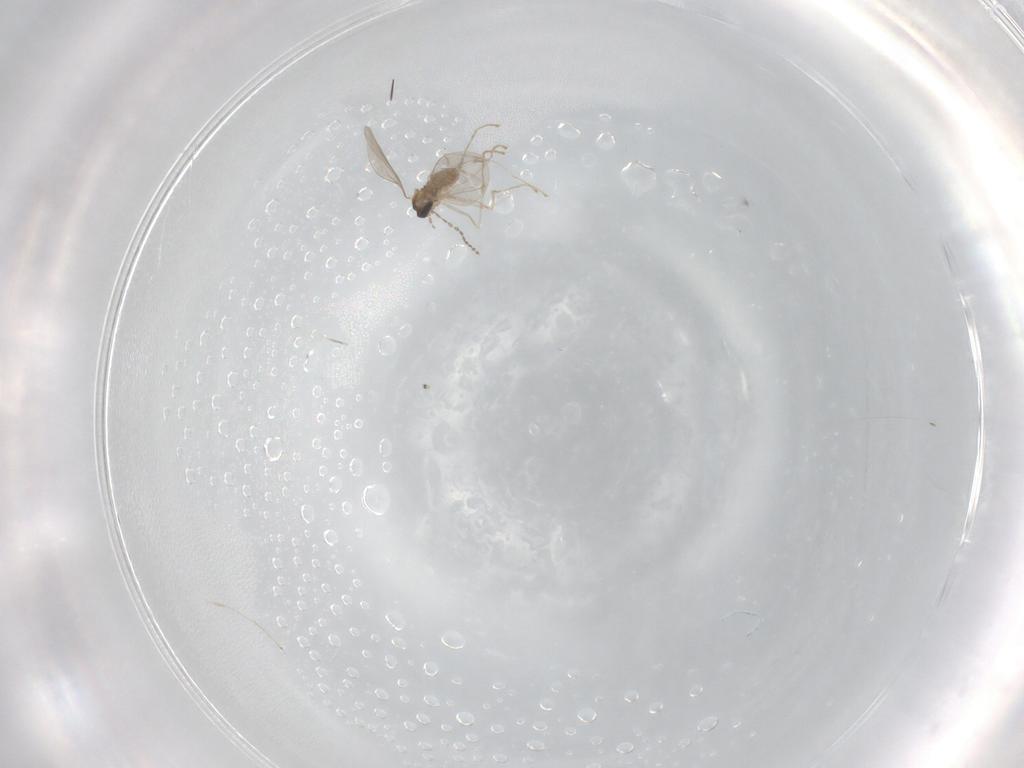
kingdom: Animalia
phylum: Arthropoda
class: Insecta
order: Diptera
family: Cecidomyiidae
